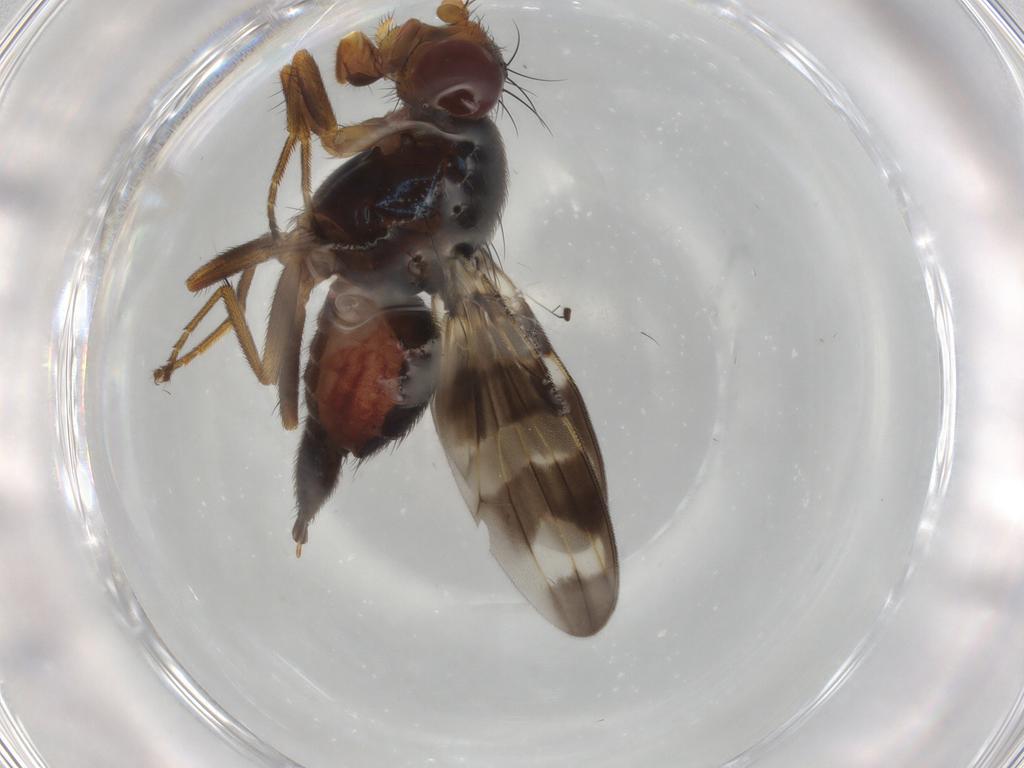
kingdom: Animalia
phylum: Arthropoda
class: Insecta
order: Diptera
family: Ulidiidae
